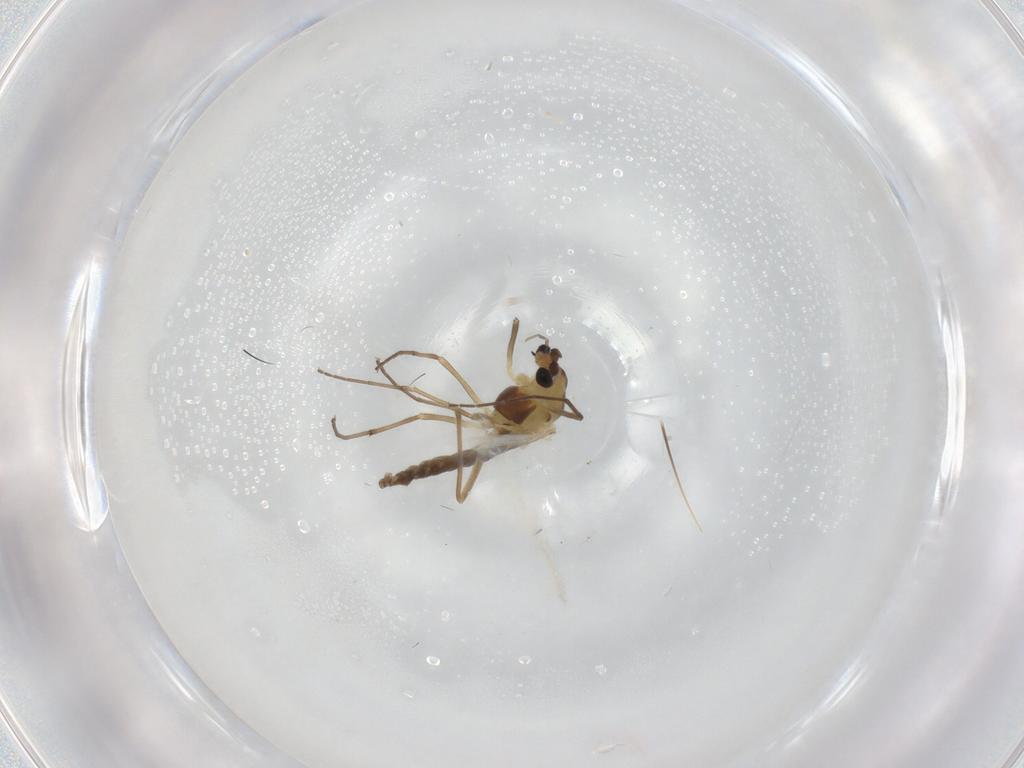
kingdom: Animalia
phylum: Arthropoda
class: Insecta
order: Diptera
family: Chironomidae
